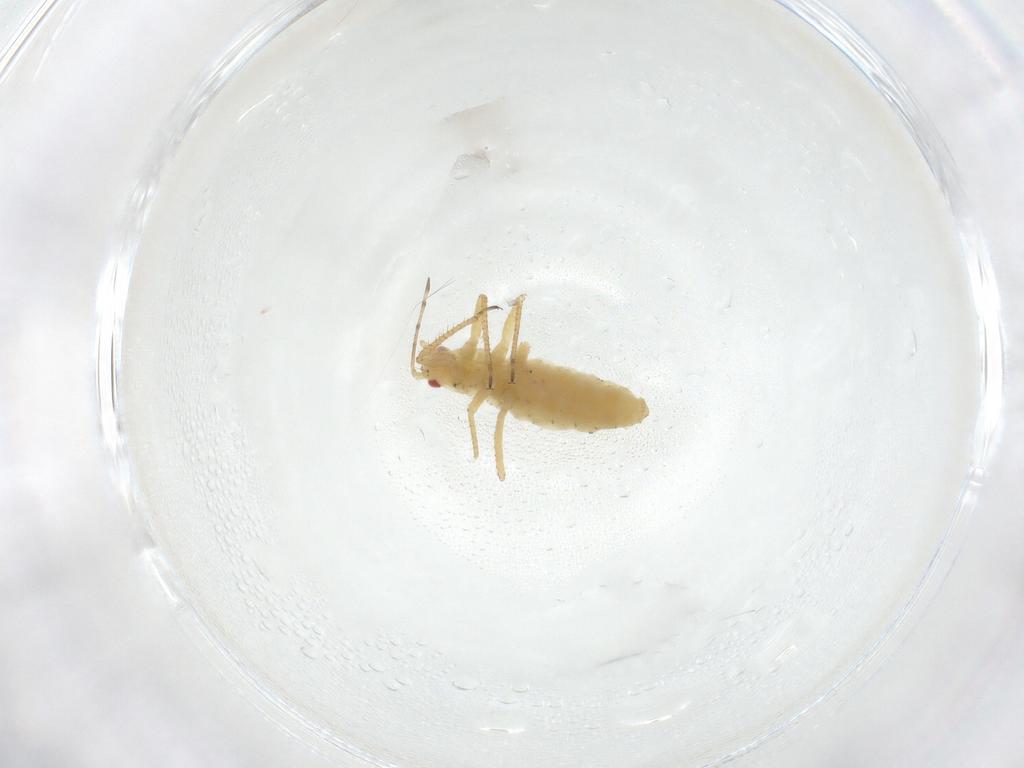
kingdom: Animalia
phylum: Arthropoda
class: Insecta
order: Hemiptera
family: Aphididae
